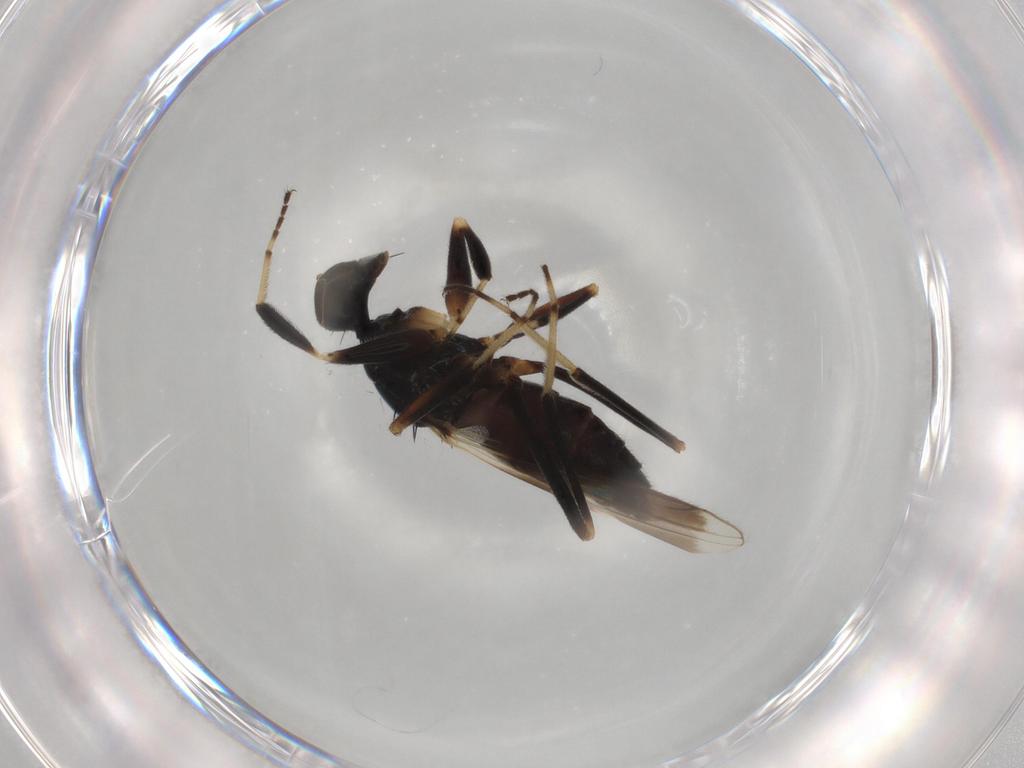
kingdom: Animalia
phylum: Arthropoda
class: Insecta
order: Diptera
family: Hybotidae
